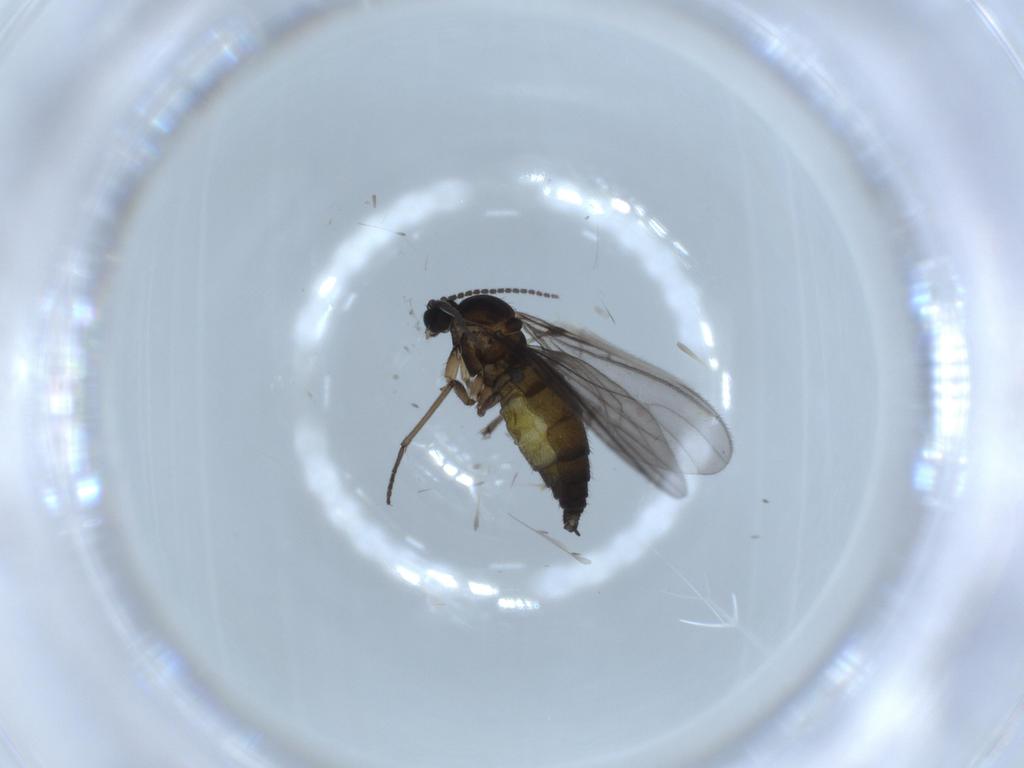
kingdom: Animalia
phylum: Arthropoda
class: Insecta
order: Diptera
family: Sciaridae
